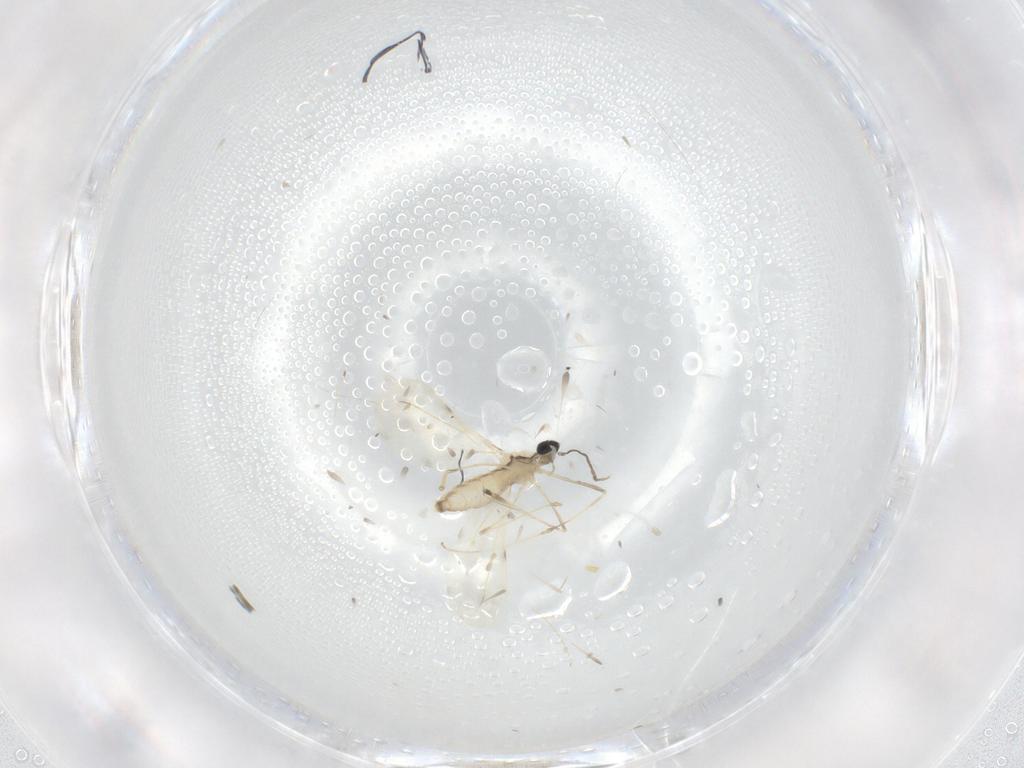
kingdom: Animalia
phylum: Arthropoda
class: Insecta
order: Diptera
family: Cecidomyiidae
